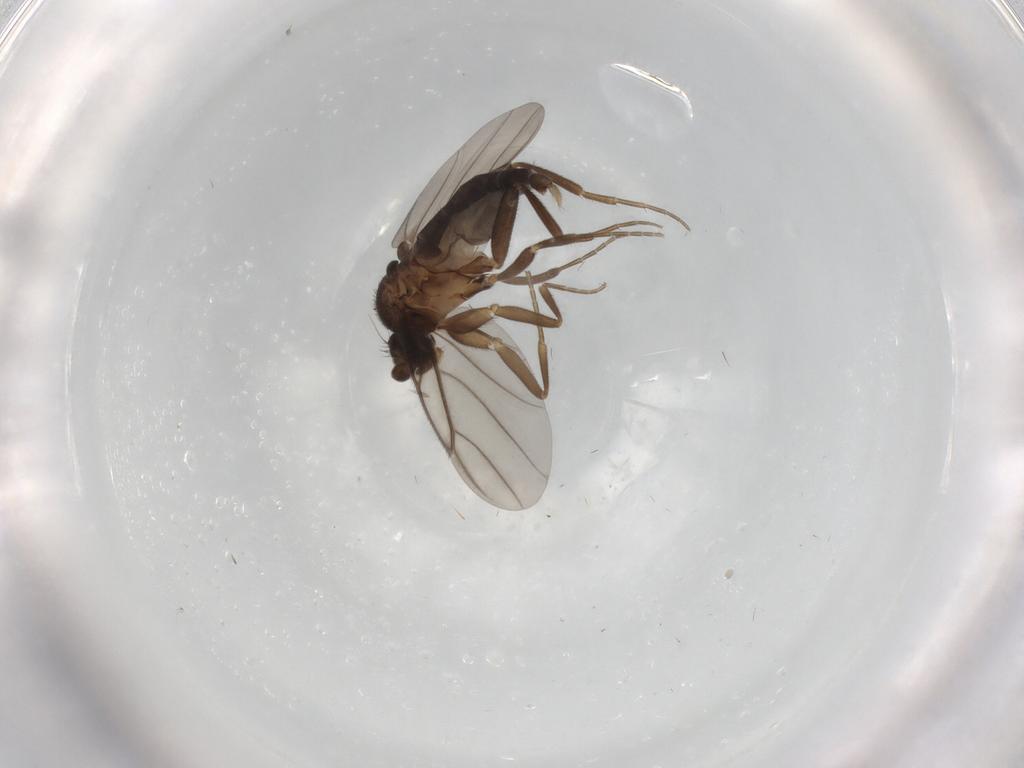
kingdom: Animalia
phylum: Arthropoda
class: Insecta
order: Diptera
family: Phoridae
